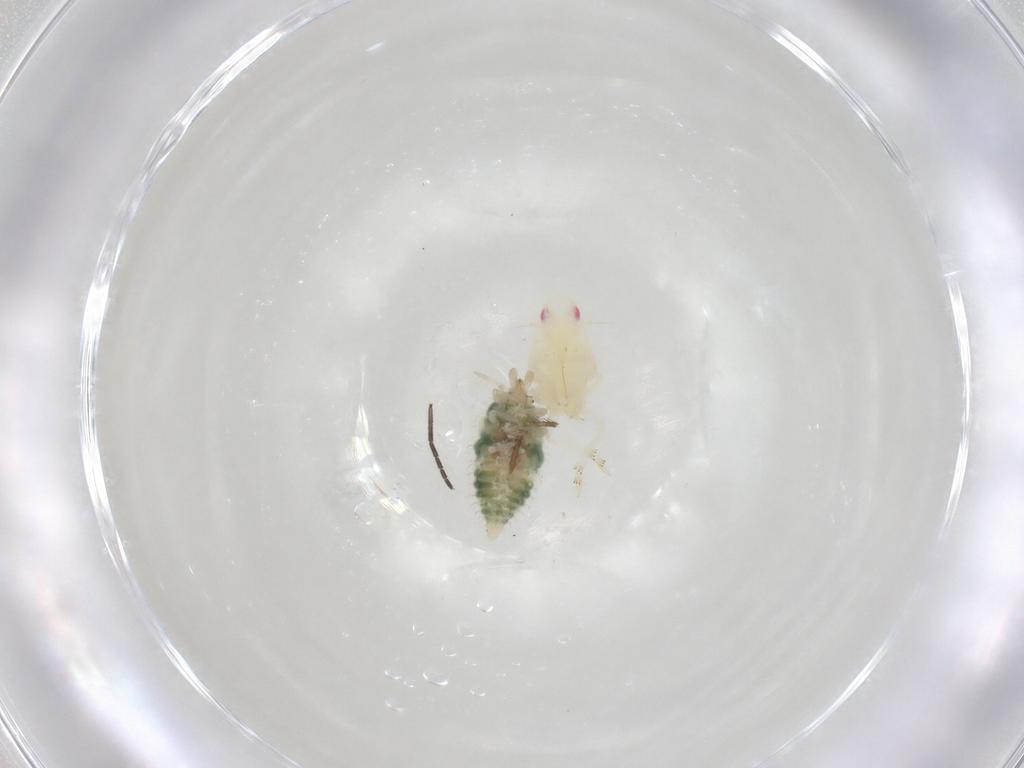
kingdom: Animalia
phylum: Arthropoda
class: Insecta
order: Hemiptera
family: Flatidae
